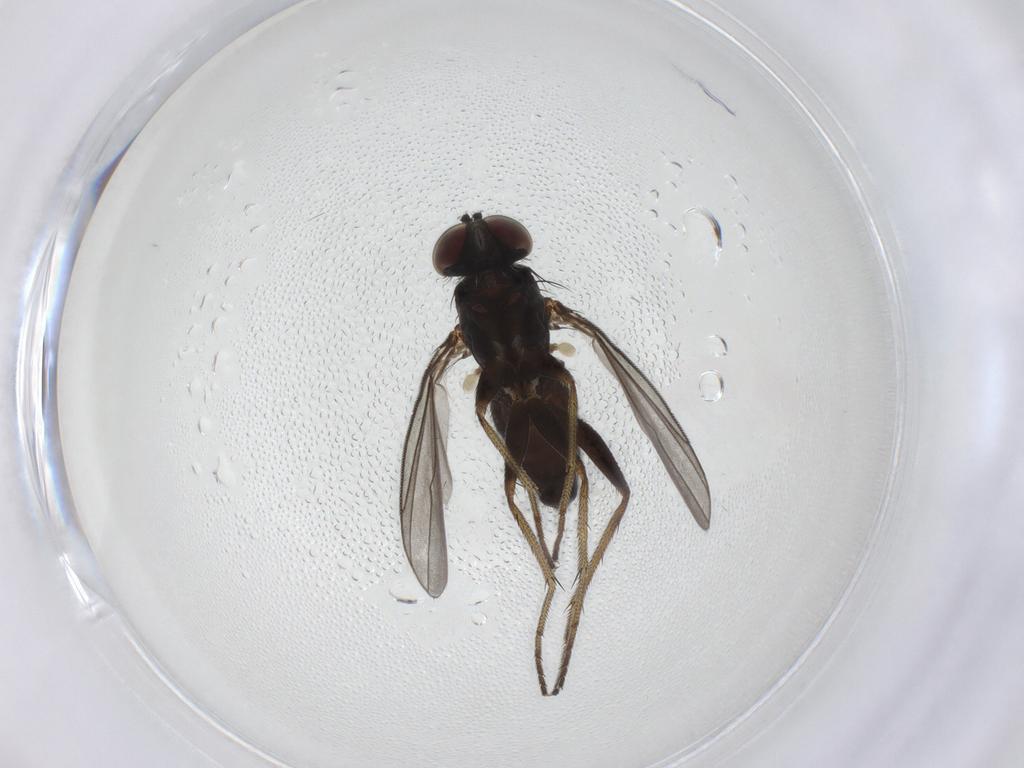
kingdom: Animalia
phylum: Arthropoda
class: Insecta
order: Diptera
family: Dolichopodidae
